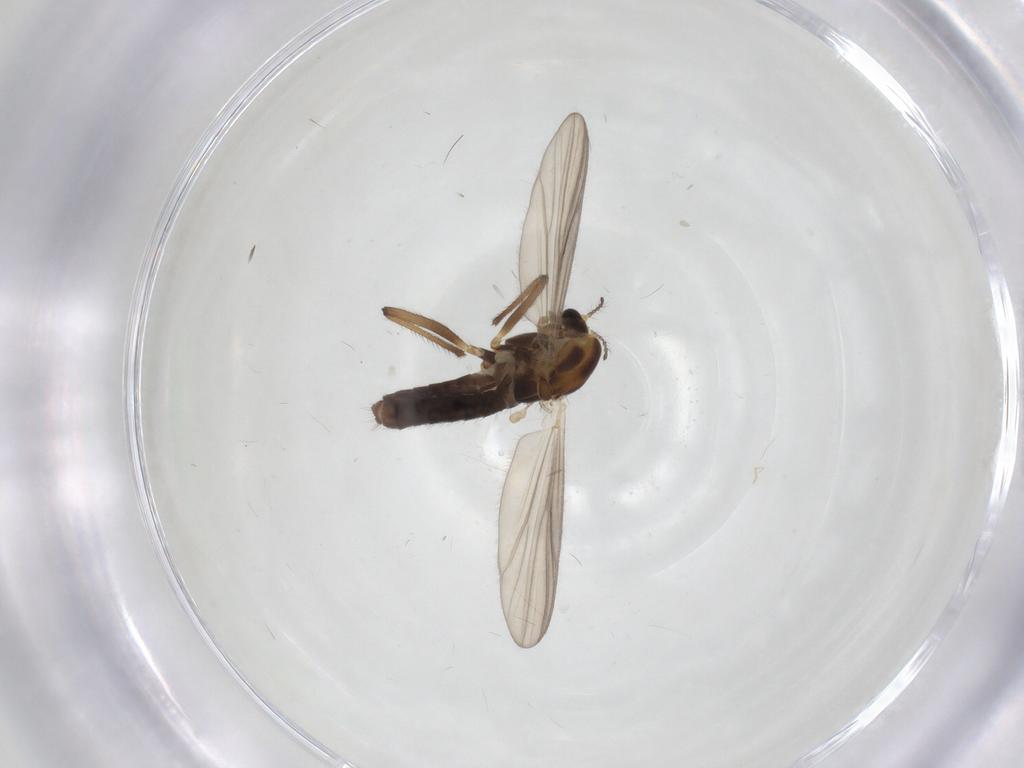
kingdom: Animalia
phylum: Arthropoda
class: Insecta
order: Diptera
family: Chironomidae
